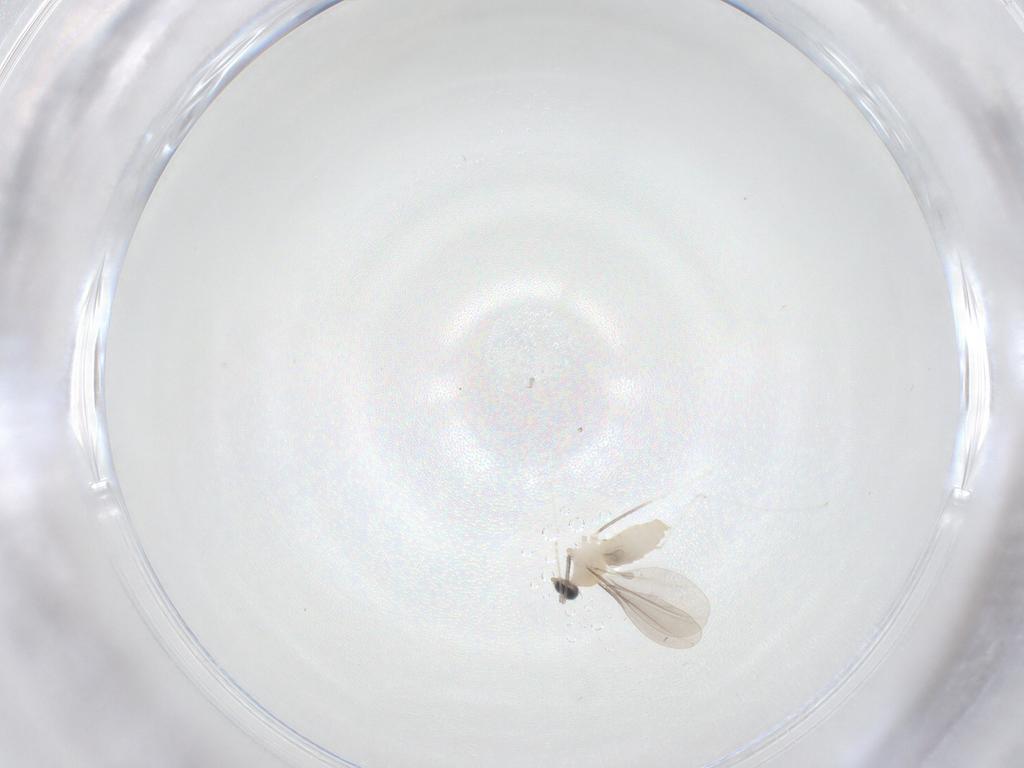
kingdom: Animalia
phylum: Arthropoda
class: Insecta
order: Diptera
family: Cecidomyiidae
